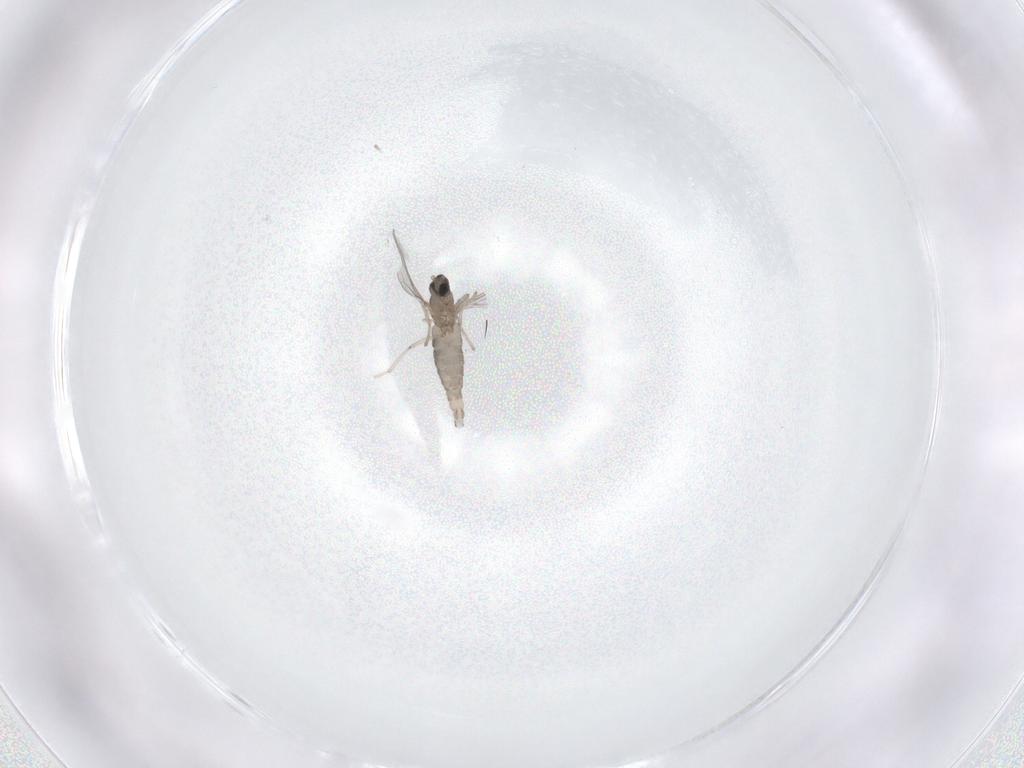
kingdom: Animalia
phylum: Arthropoda
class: Insecta
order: Diptera
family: Cecidomyiidae
